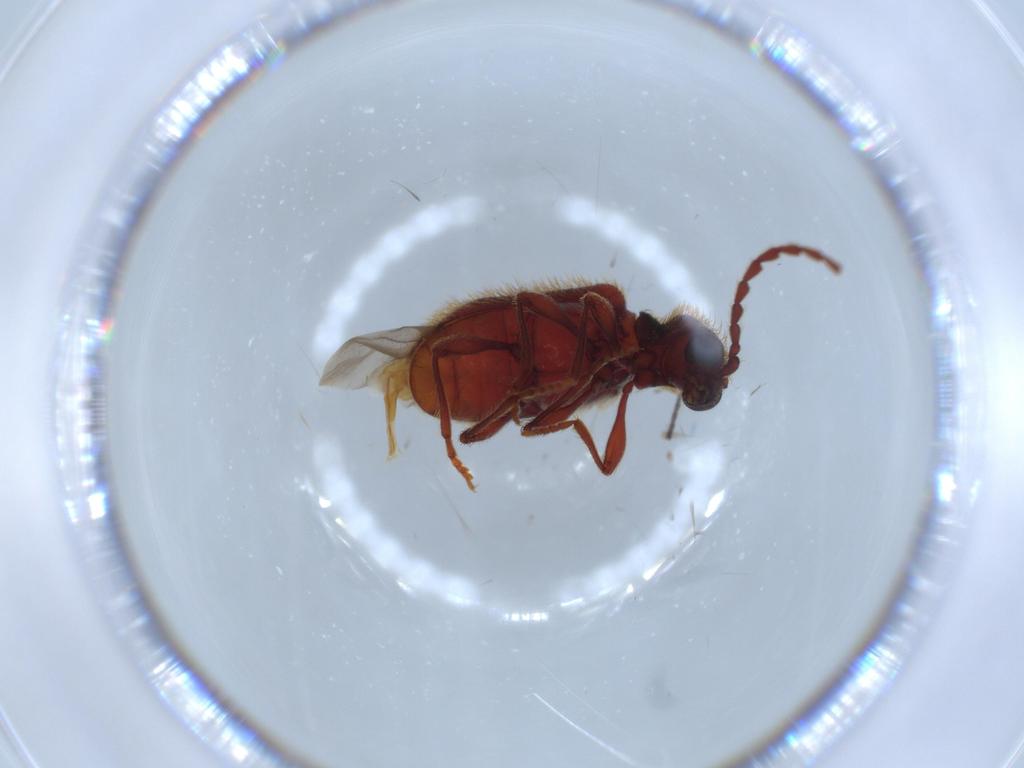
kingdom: Animalia
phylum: Arthropoda
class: Insecta
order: Coleoptera
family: Ptinidae
